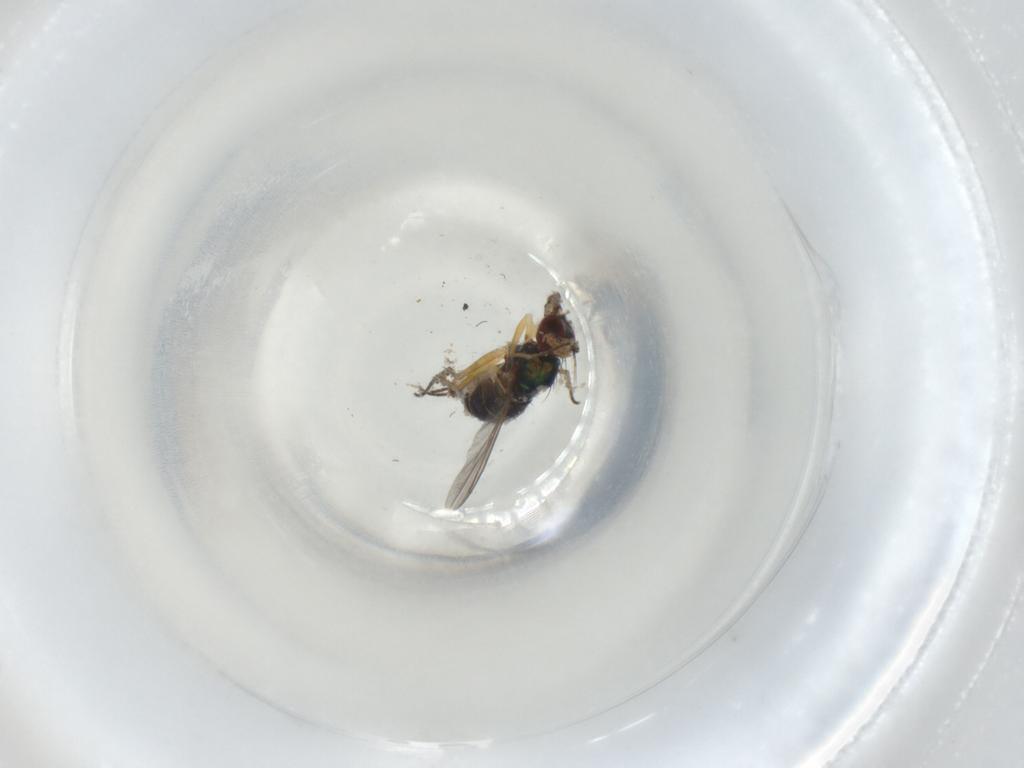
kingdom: Animalia
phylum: Arthropoda
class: Insecta
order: Diptera
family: Dolichopodidae
